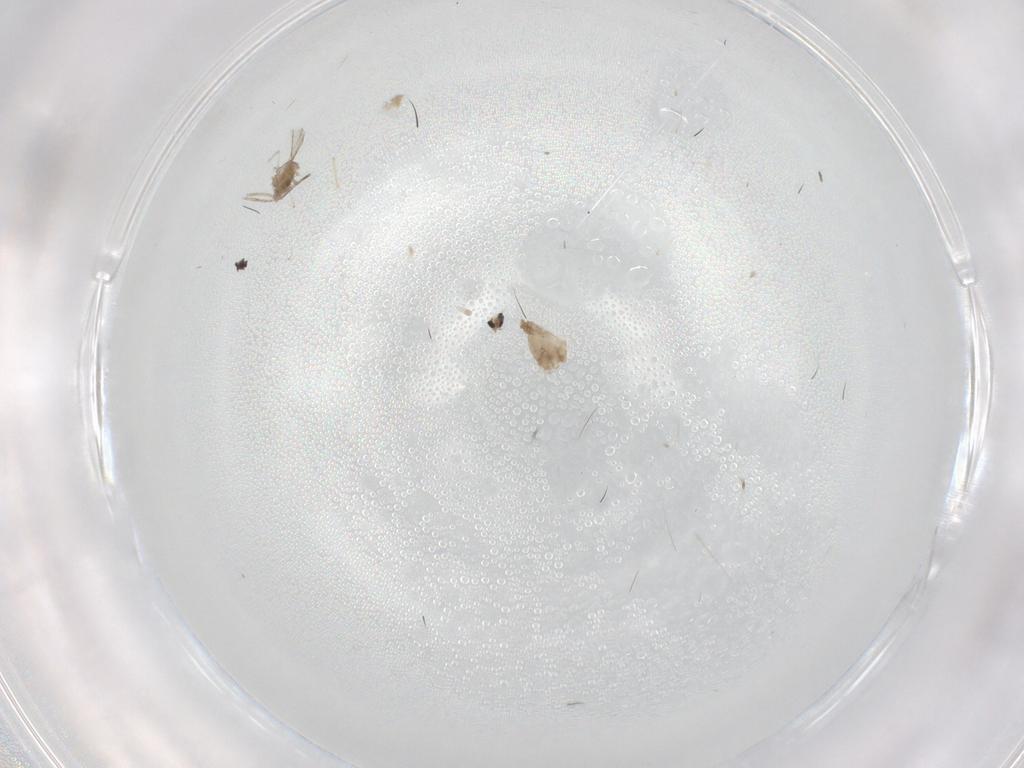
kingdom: Animalia
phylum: Arthropoda
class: Insecta
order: Diptera
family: Cecidomyiidae
